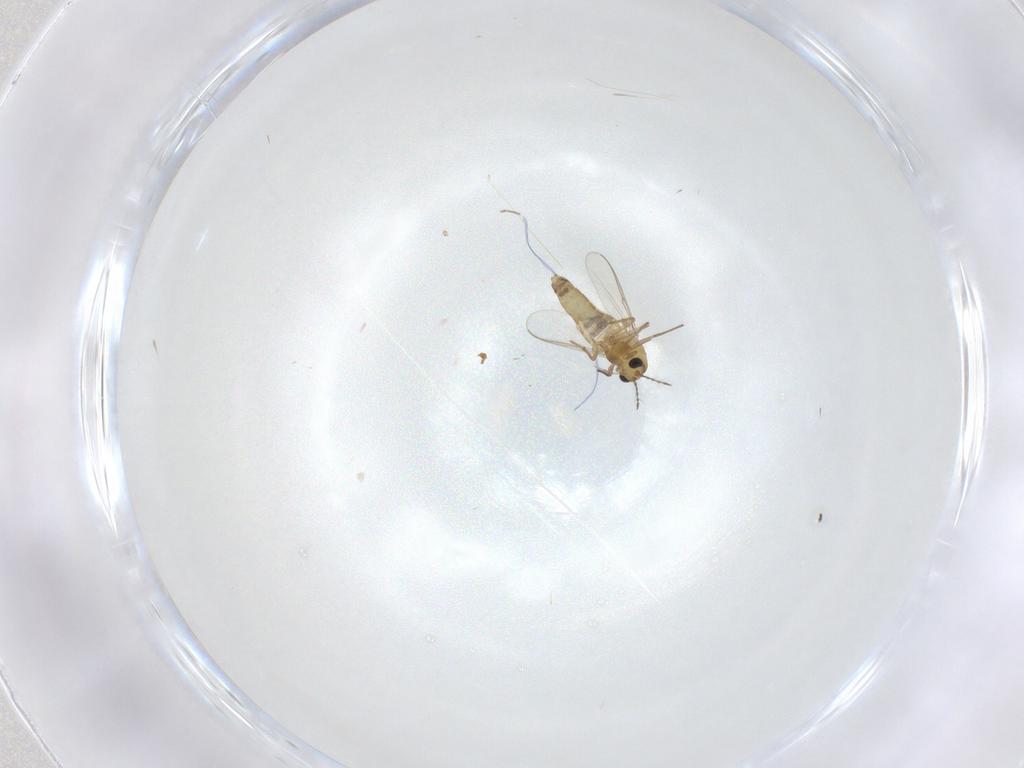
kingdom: Animalia
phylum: Arthropoda
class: Insecta
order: Diptera
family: Chironomidae
